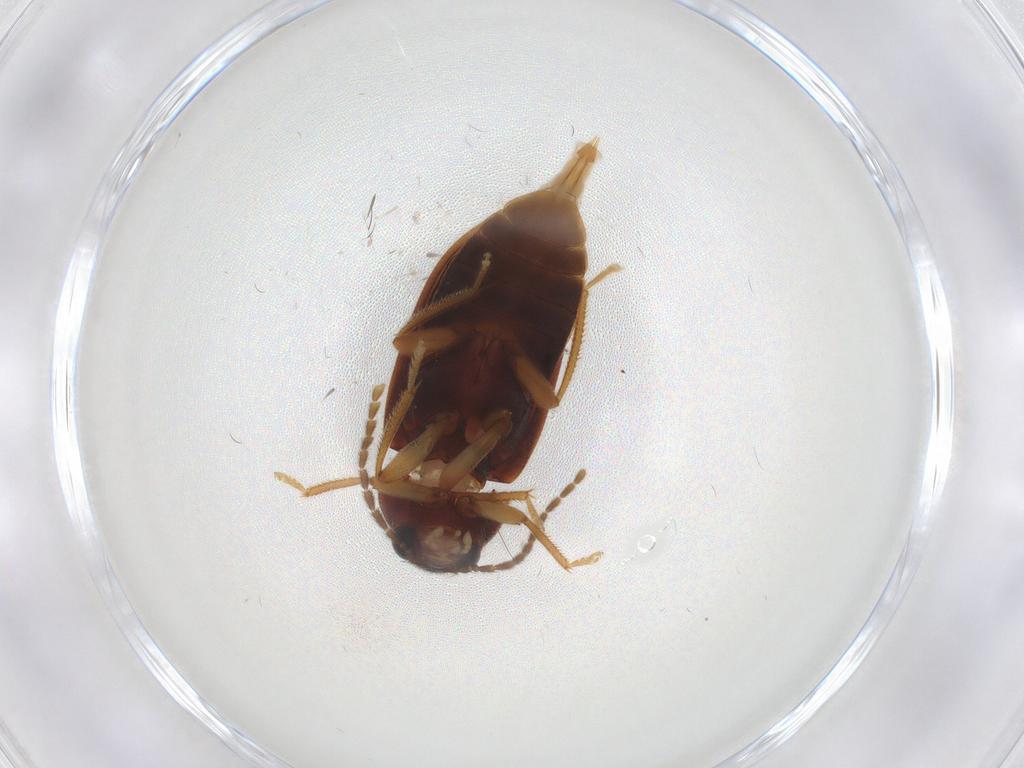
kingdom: Animalia
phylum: Arthropoda
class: Insecta
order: Coleoptera
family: Ptilodactylidae
